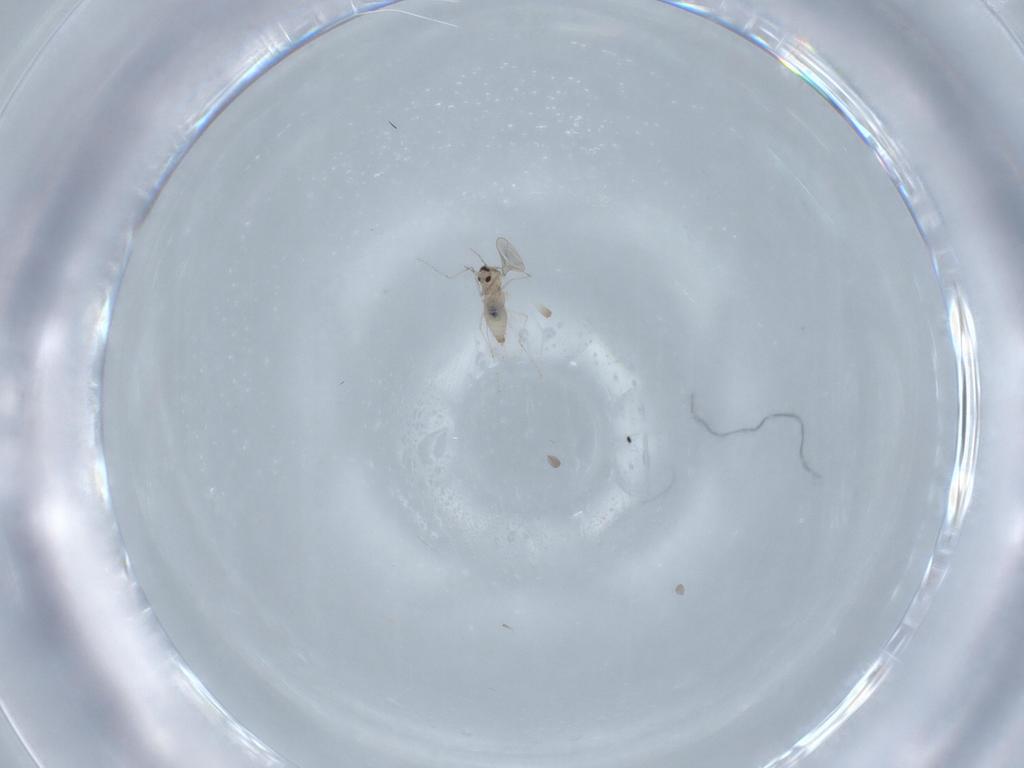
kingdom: Animalia
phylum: Arthropoda
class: Insecta
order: Diptera
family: Cecidomyiidae
